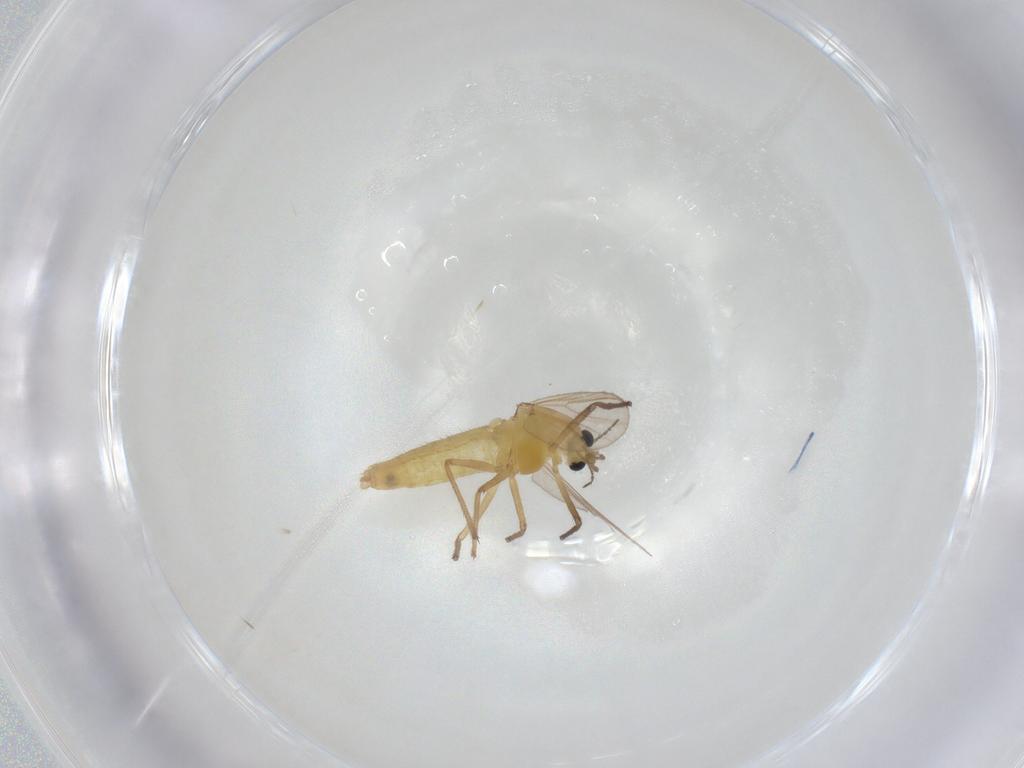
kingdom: Animalia
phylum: Arthropoda
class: Insecta
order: Diptera
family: Chironomidae
